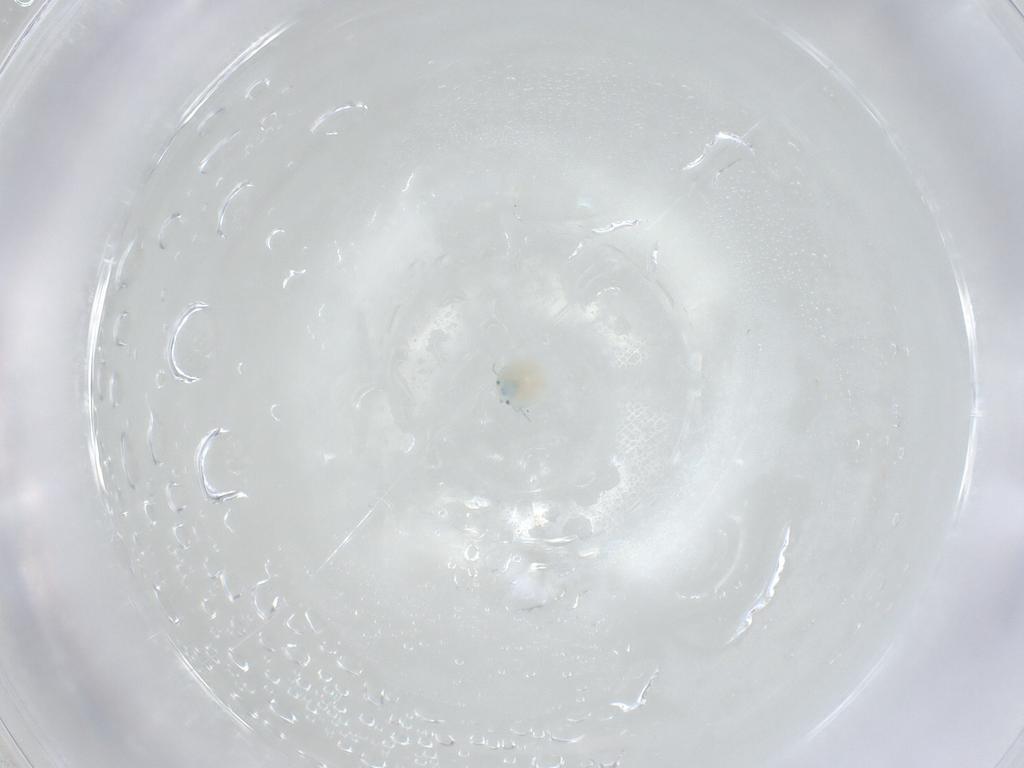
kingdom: Animalia
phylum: Arthropoda
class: Arachnida
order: Trombidiformes
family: Arrenuridae
